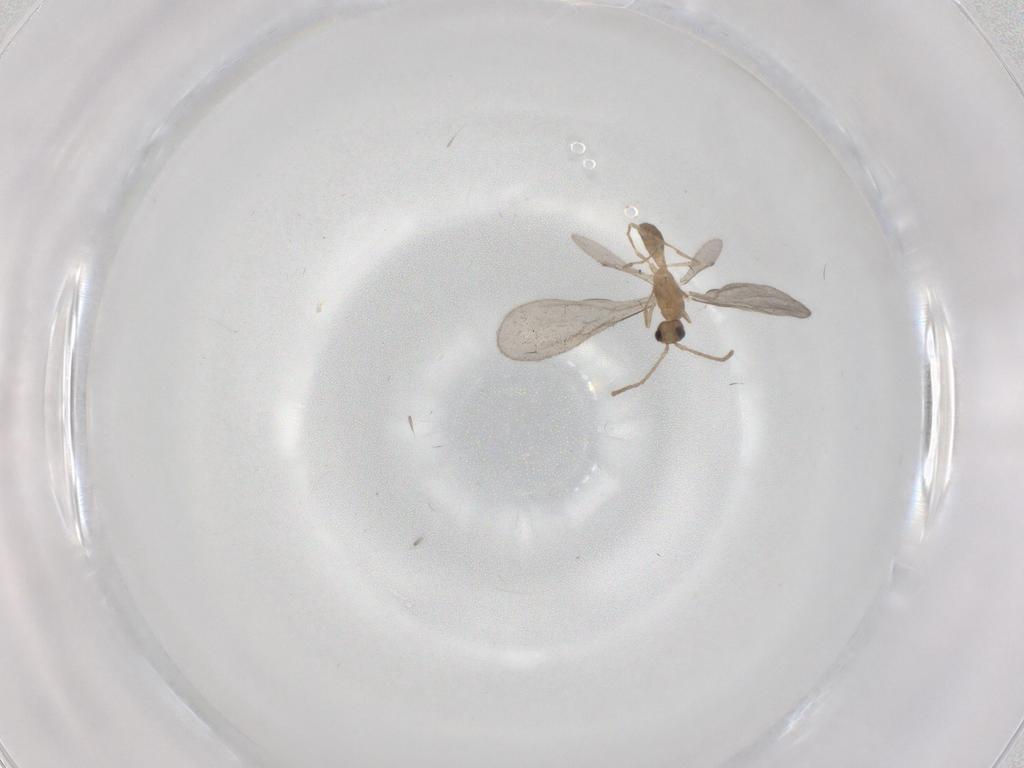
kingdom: Animalia
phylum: Arthropoda
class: Insecta
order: Hymenoptera
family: Formicidae
